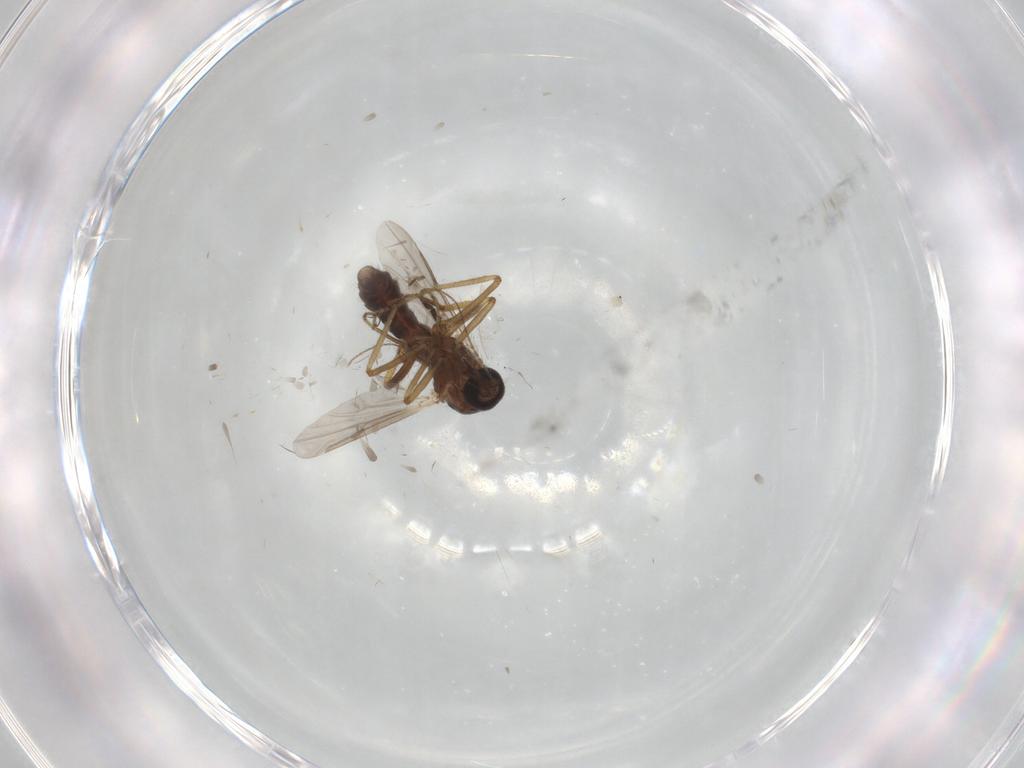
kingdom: Animalia
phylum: Arthropoda
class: Insecta
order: Diptera
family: Ceratopogonidae
